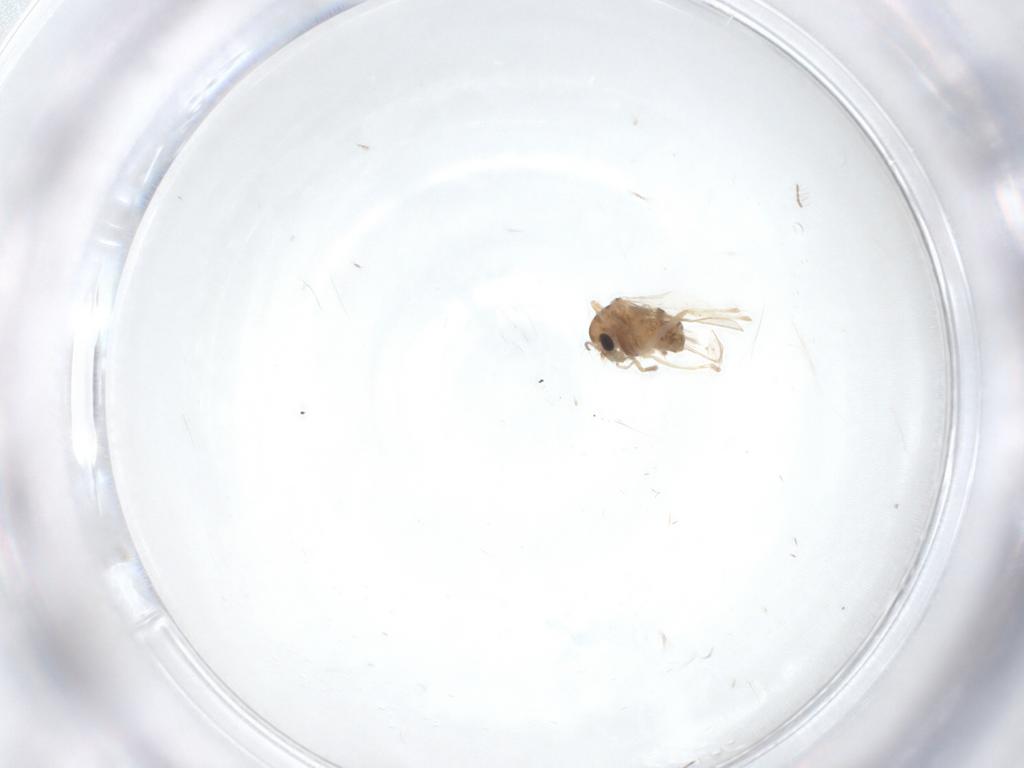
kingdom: Animalia
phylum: Arthropoda
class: Insecta
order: Diptera
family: Chironomidae
